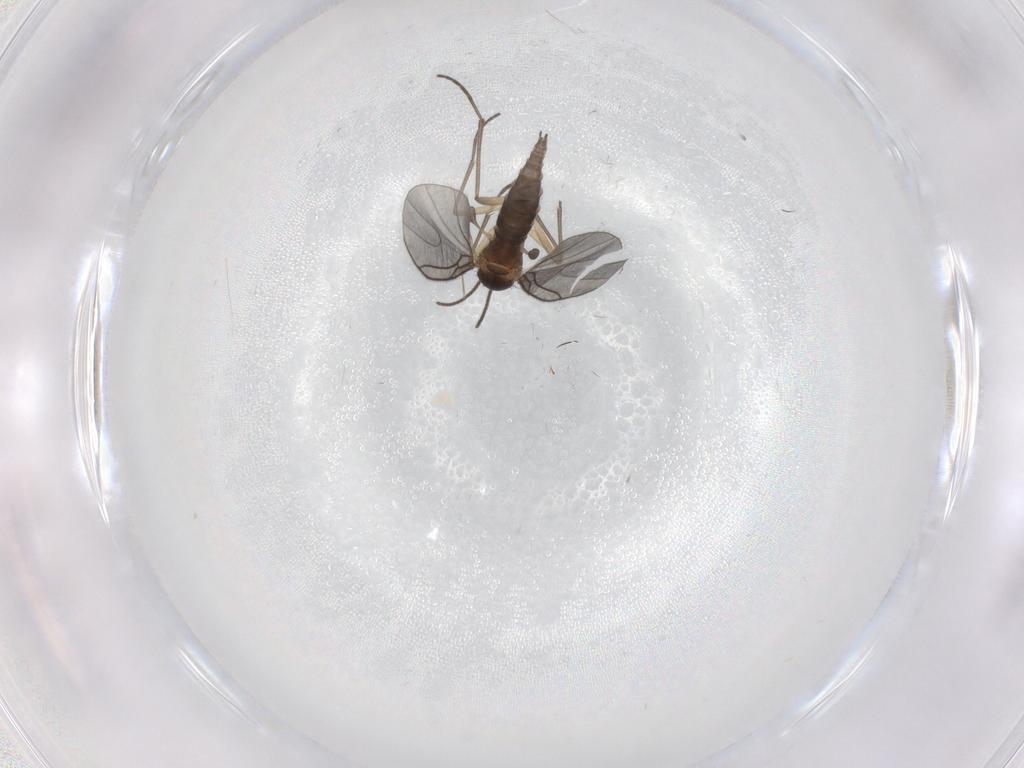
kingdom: Animalia
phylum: Arthropoda
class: Insecta
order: Diptera
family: Sciaridae
